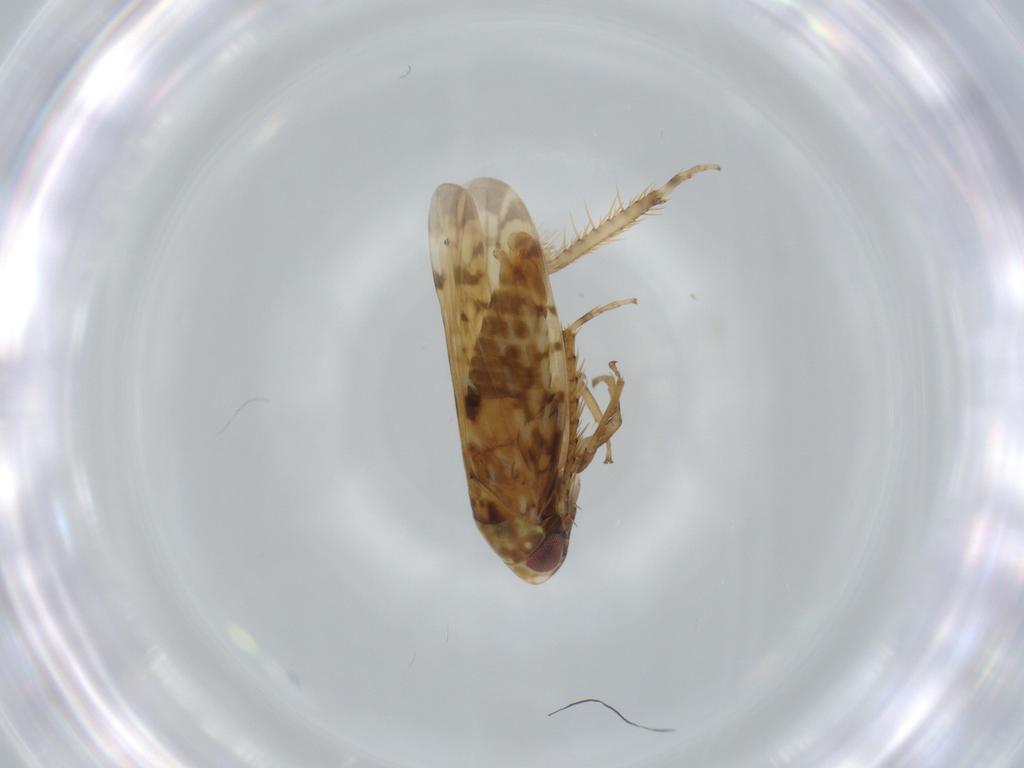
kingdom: Animalia
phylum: Arthropoda
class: Insecta
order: Hemiptera
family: Cicadellidae
